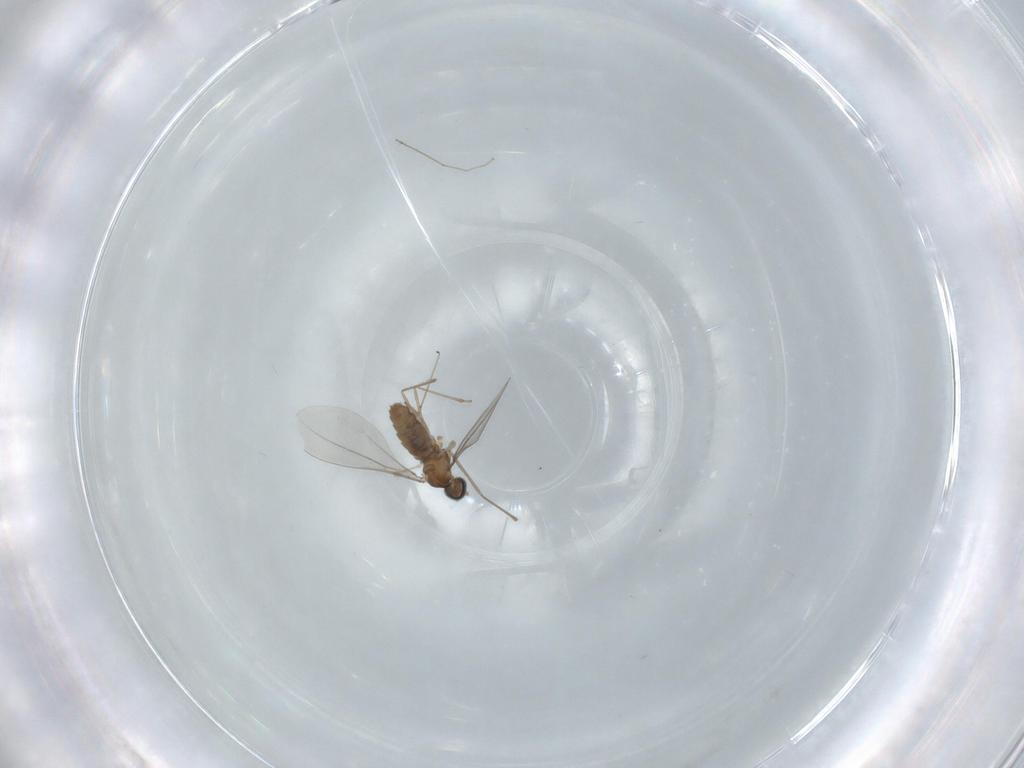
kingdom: Animalia
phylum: Arthropoda
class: Insecta
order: Diptera
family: Cecidomyiidae
